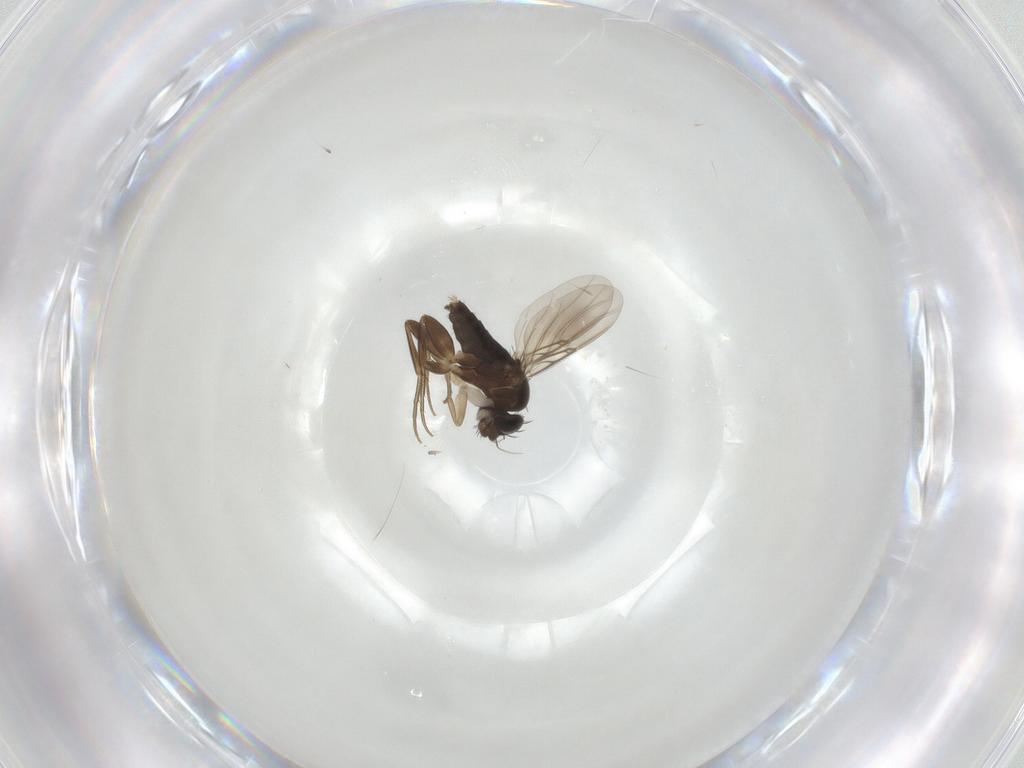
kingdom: Animalia
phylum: Arthropoda
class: Insecta
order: Diptera
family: Phoridae
